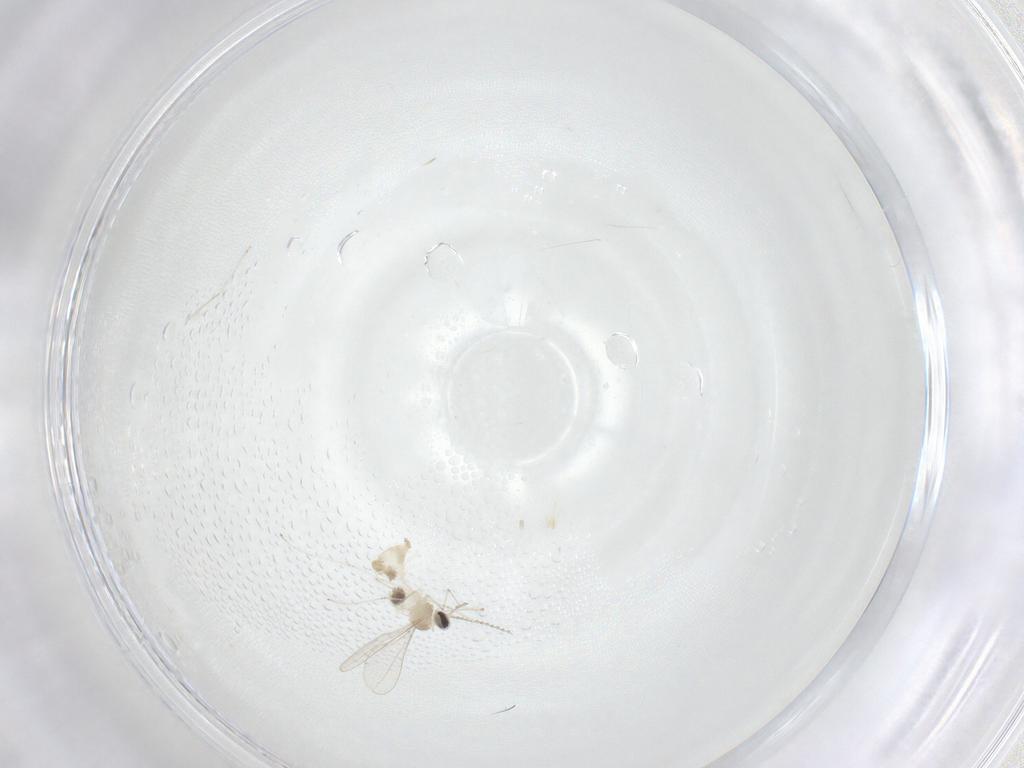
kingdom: Animalia
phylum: Arthropoda
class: Insecta
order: Diptera
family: Cecidomyiidae
